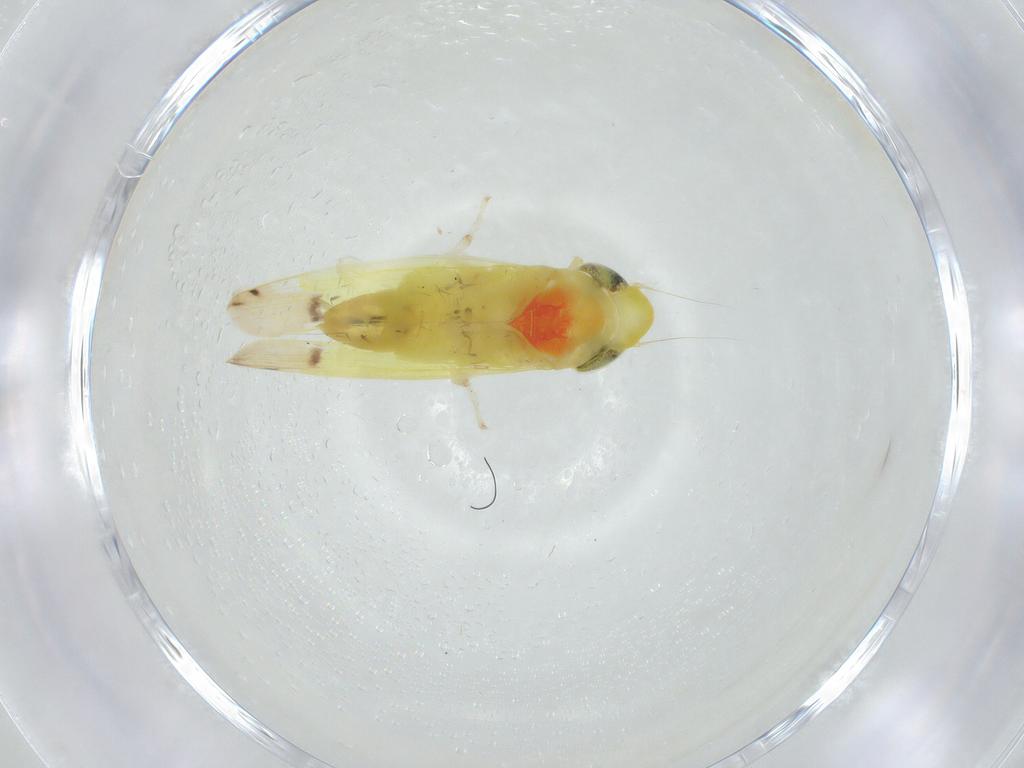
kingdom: Animalia
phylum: Arthropoda
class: Insecta
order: Hemiptera
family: Cicadellidae
